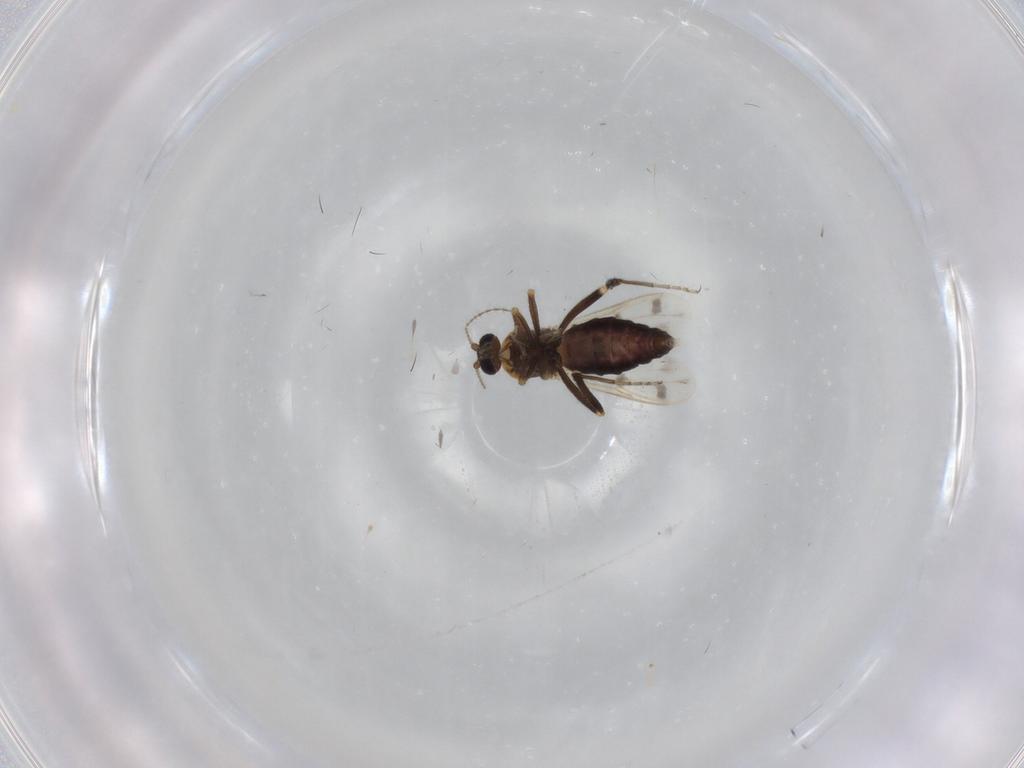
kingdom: Animalia
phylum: Arthropoda
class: Insecta
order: Diptera
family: Ceratopogonidae
